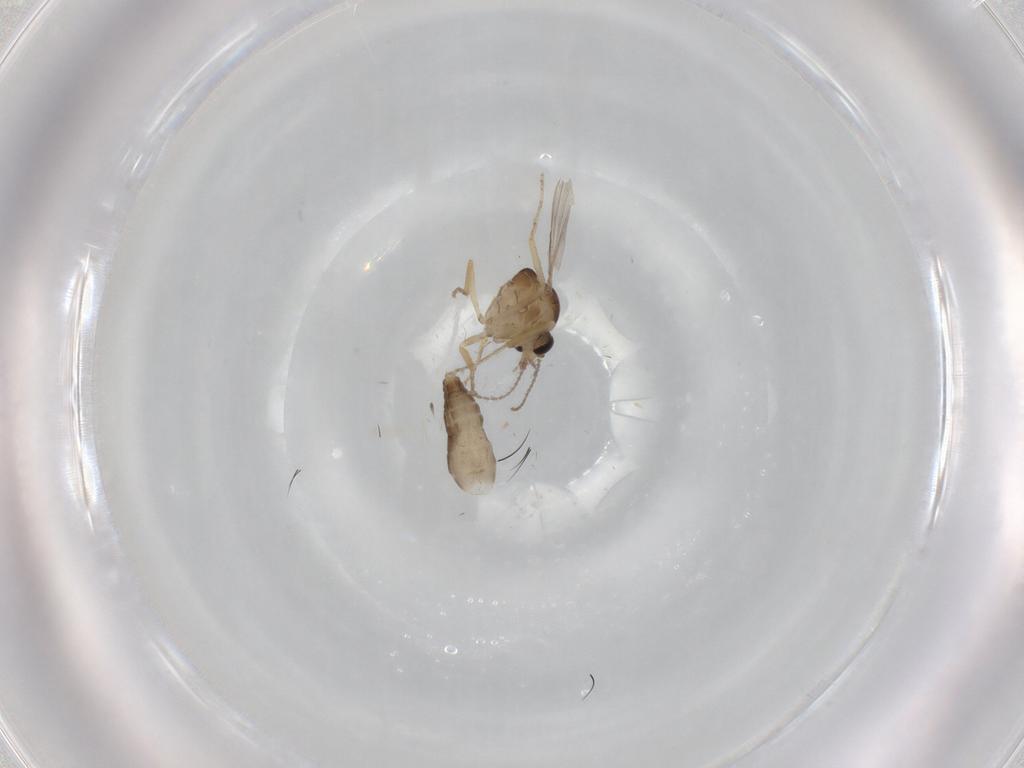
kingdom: Animalia
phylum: Arthropoda
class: Insecta
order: Diptera
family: Ceratopogonidae
